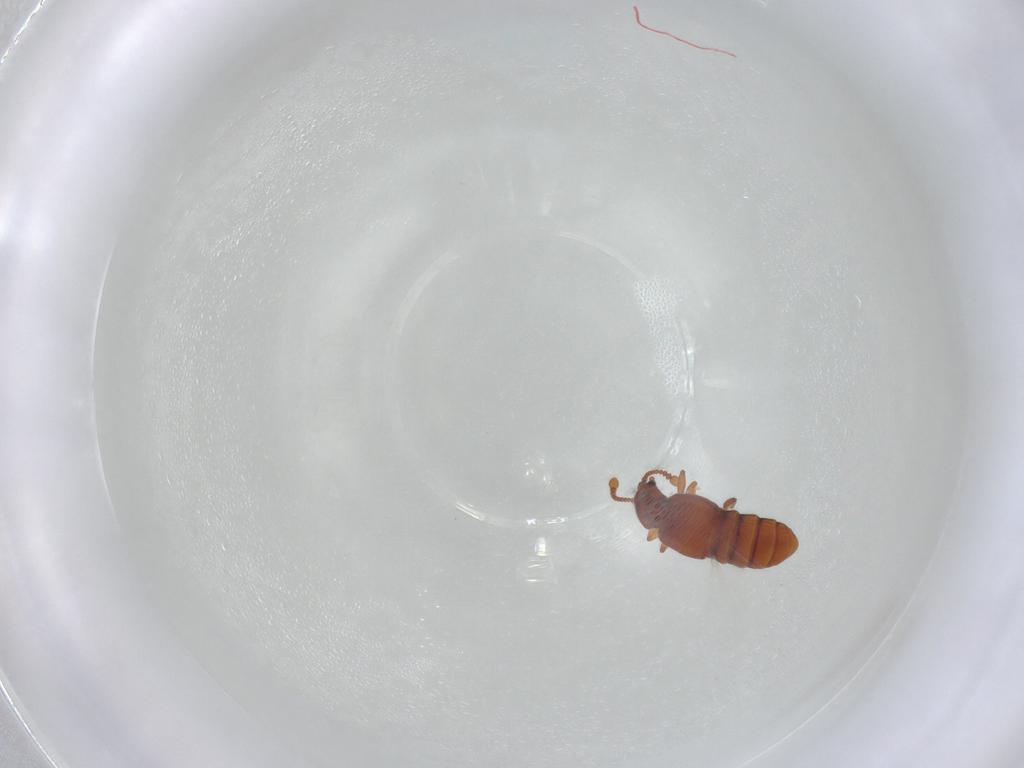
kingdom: Animalia
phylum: Arthropoda
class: Insecta
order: Coleoptera
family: Staphylinidae
